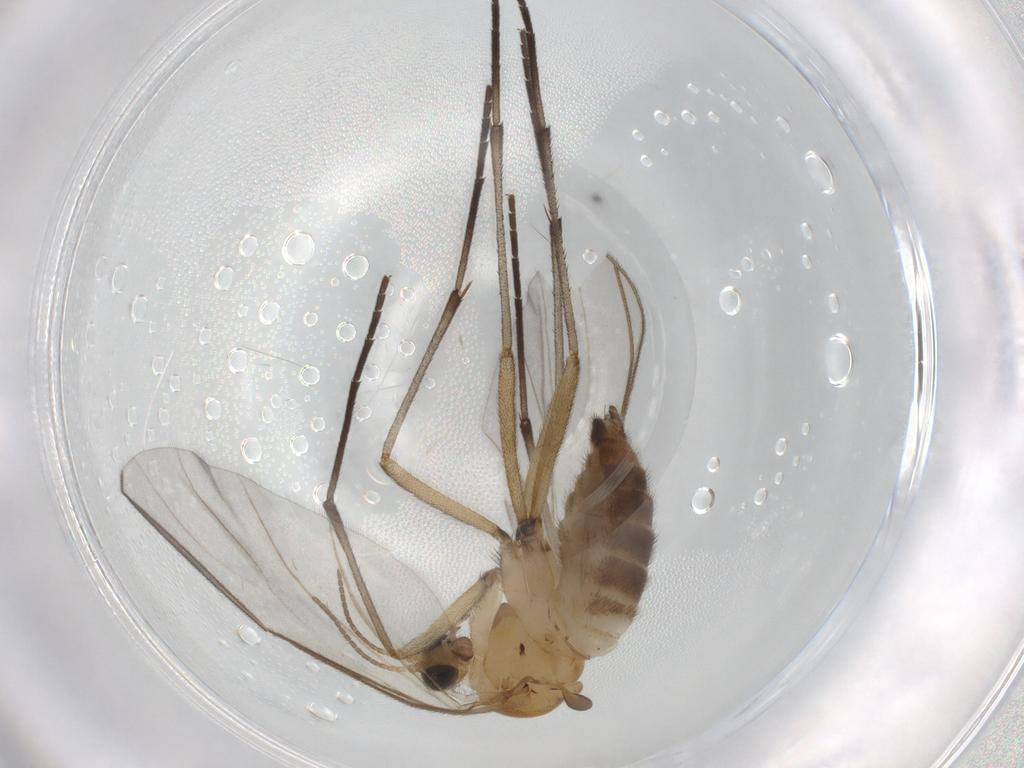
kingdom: Animalia
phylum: Arthropoda
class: Insecta
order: Diptera
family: Sciaridae
